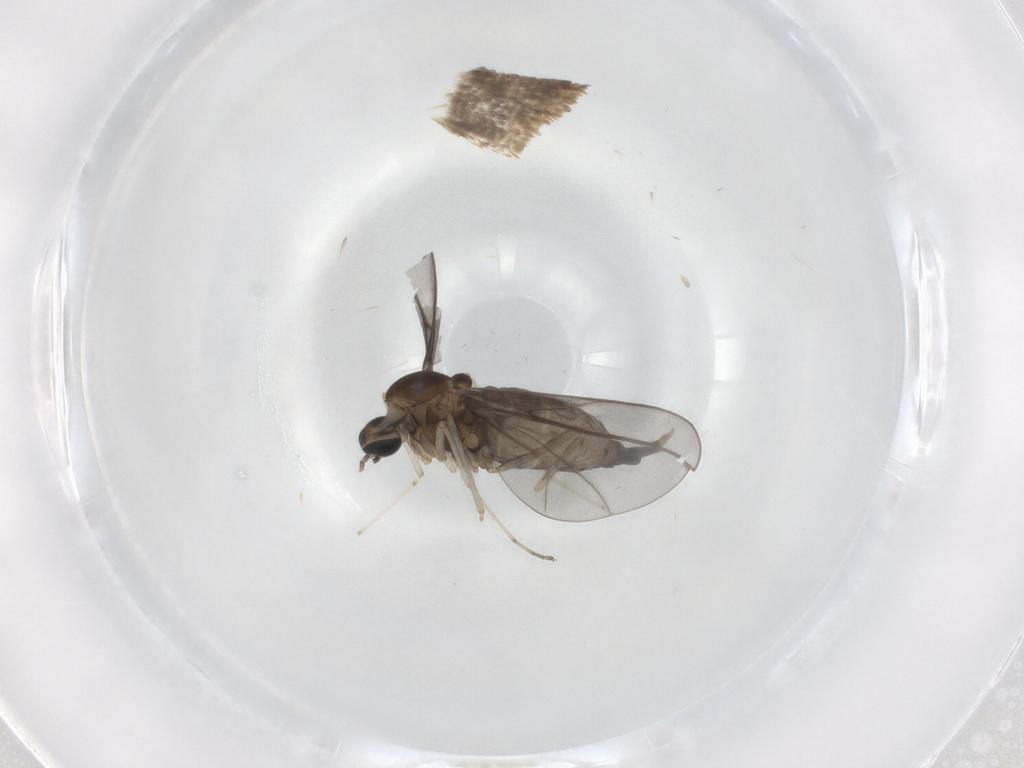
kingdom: Animalia
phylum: Arthropoda
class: Insecta
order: Diptera
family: Cecidomyiidae
